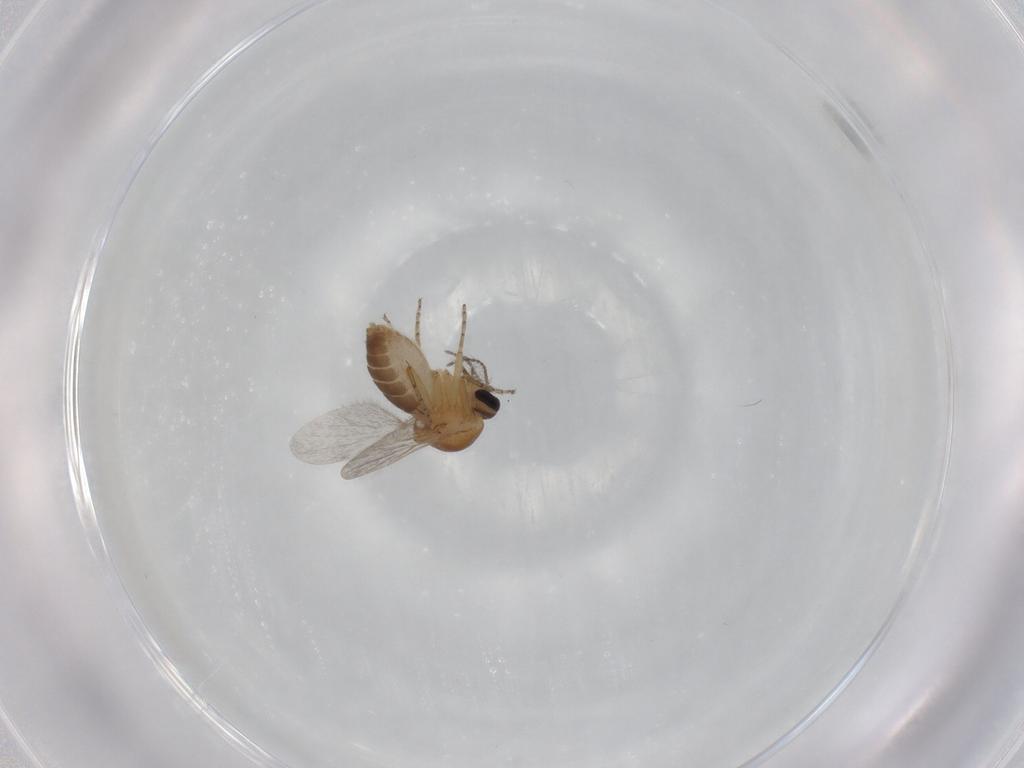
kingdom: Animalia
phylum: Arthropoda
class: Insecta
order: Diptera
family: Ceratopogonidae
